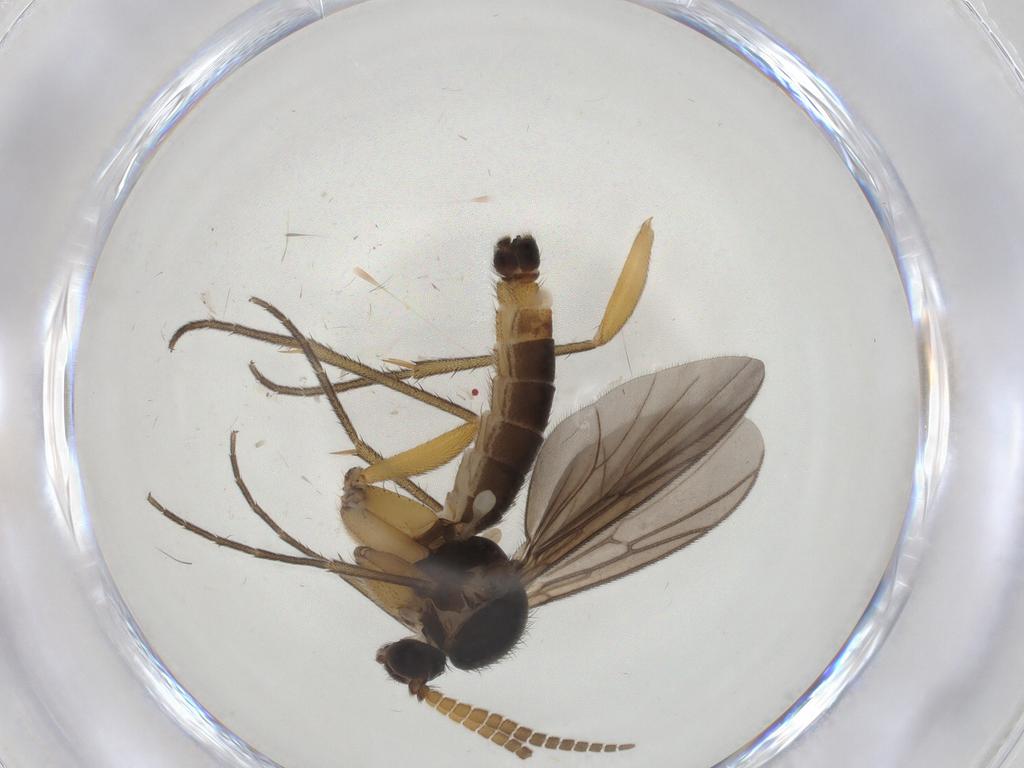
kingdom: Animalia
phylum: Arthropoda
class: Insecta
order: Diptera
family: Mycetophilidae
